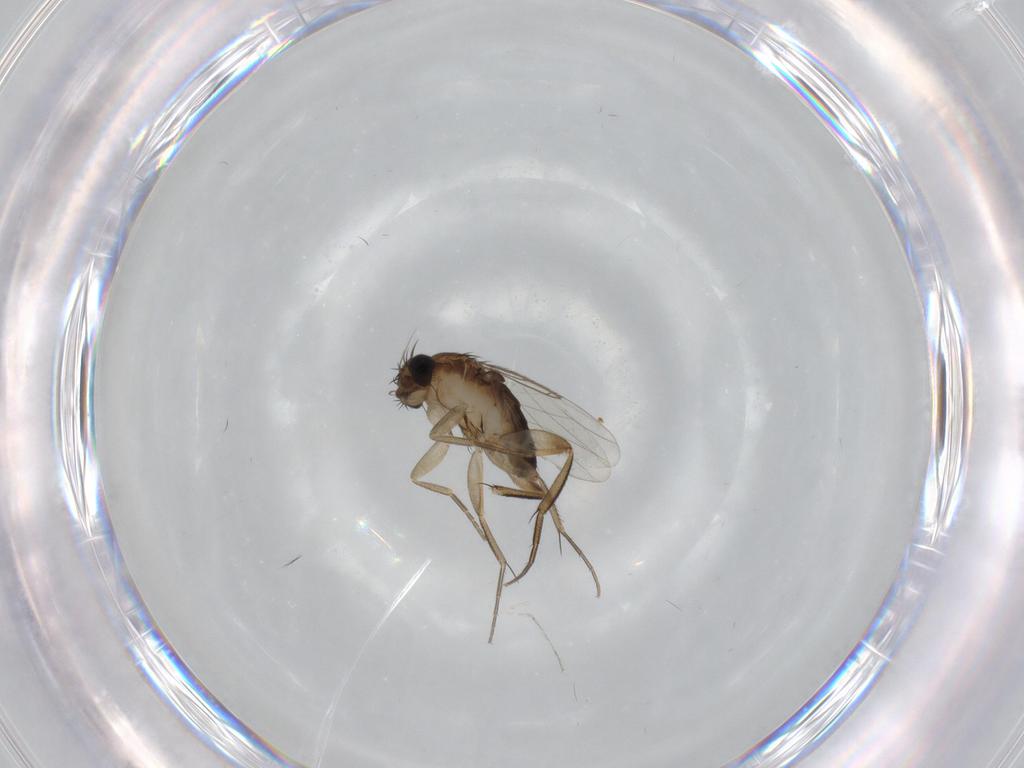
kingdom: Animalia
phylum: Arthropoda
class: Insecta
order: Diptera
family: Phoridae
